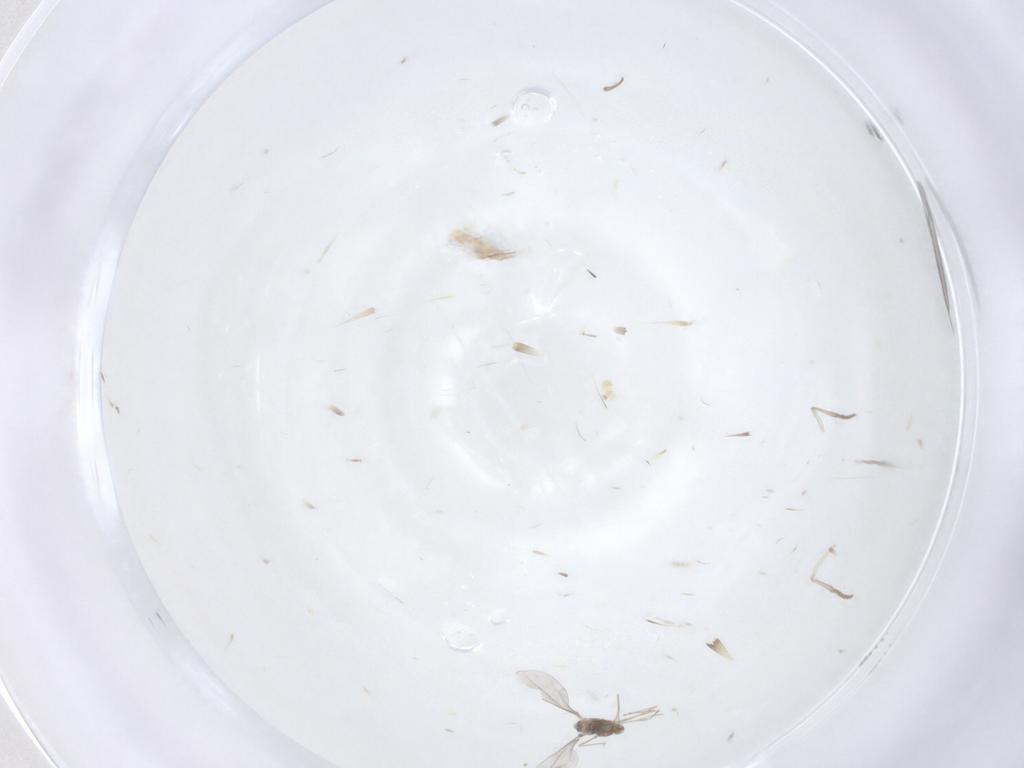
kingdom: Animalia
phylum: Arthropoda
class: Insecta
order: Diptera
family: Cecidomyiidae
